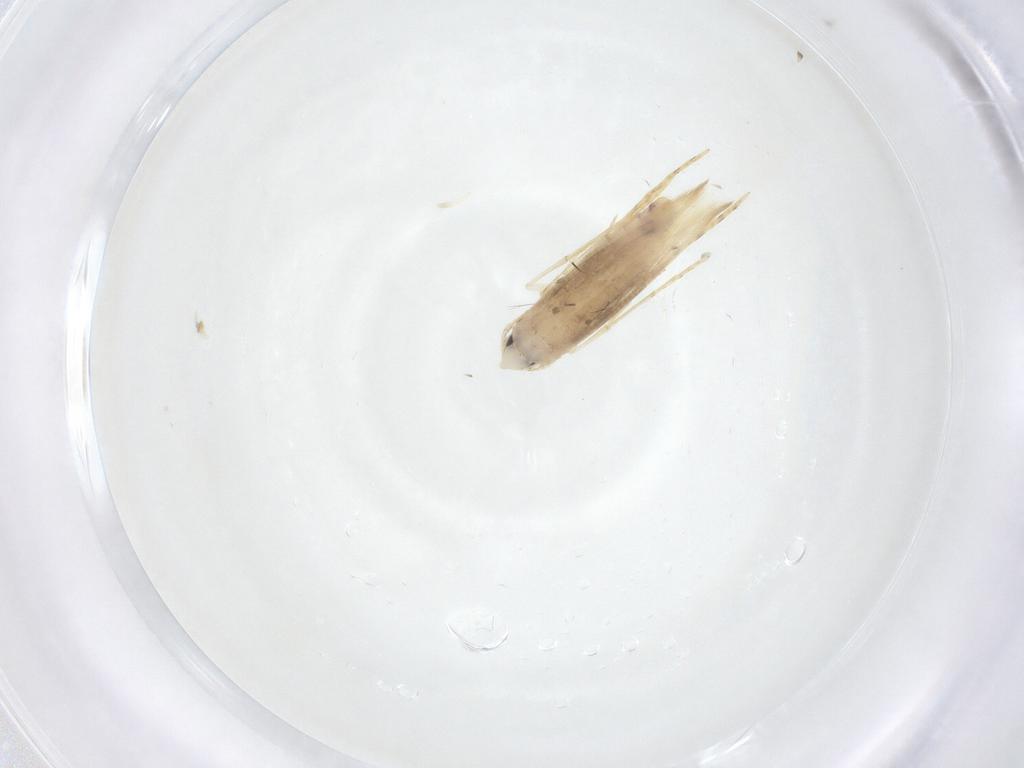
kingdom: Animalia
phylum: Arthropoda
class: Insecta
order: Lepidoptera
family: Tineidae
